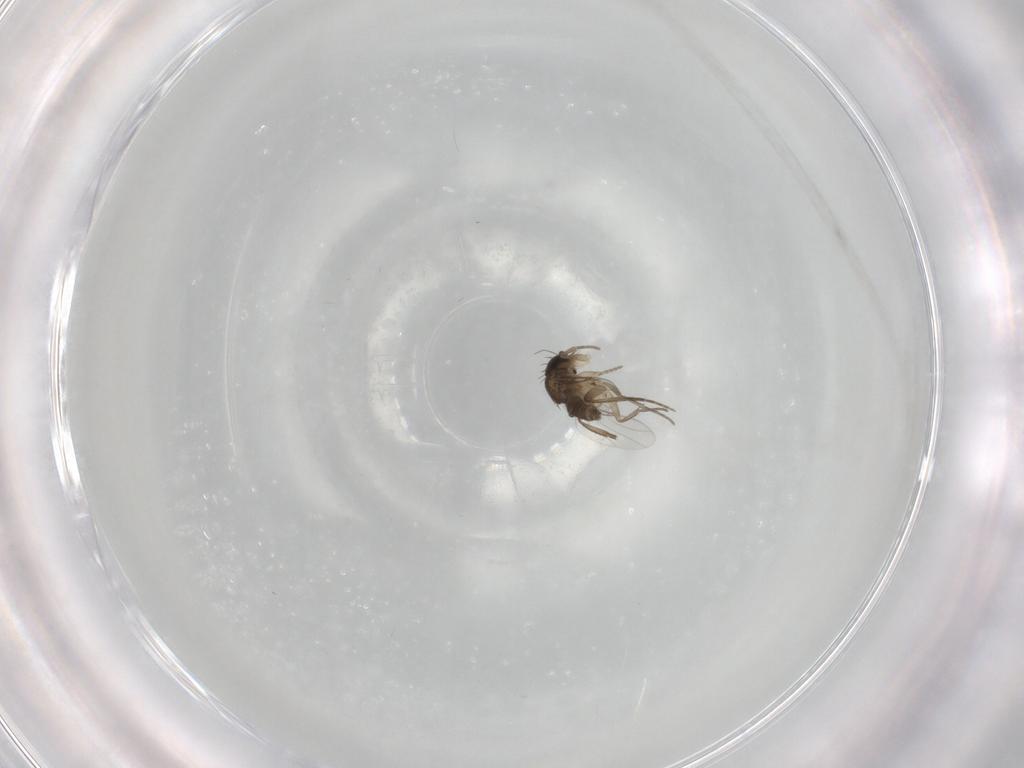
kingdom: Animalia
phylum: Arthropoda
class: Insecta
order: Diptera
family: Phoridae
